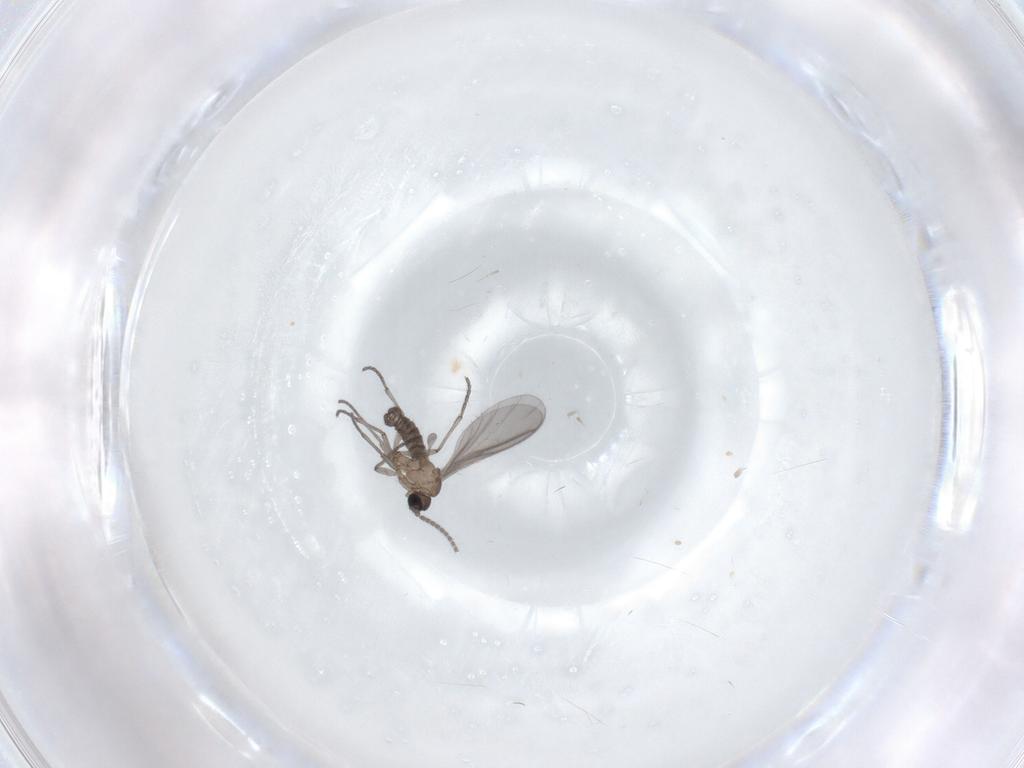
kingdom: Animalia
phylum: Arthropoda
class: Insecta
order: Diptera
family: Sciaridae
